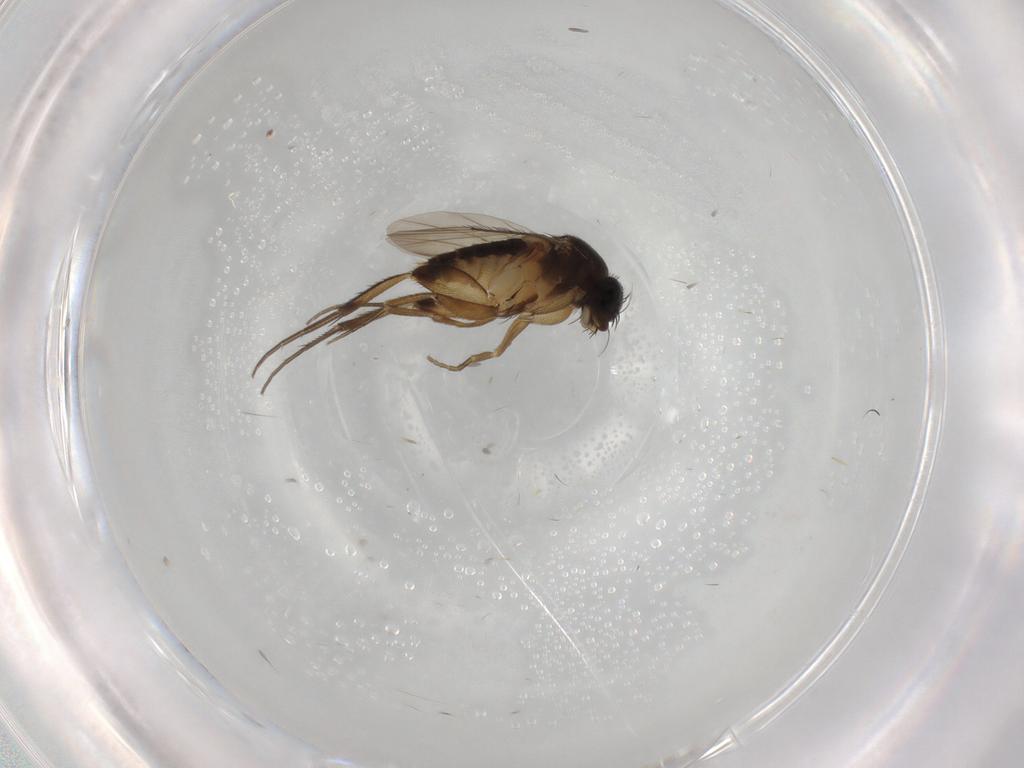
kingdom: Animalia
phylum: Arthropoda
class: Insecta
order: Diptera
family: Phoridae
